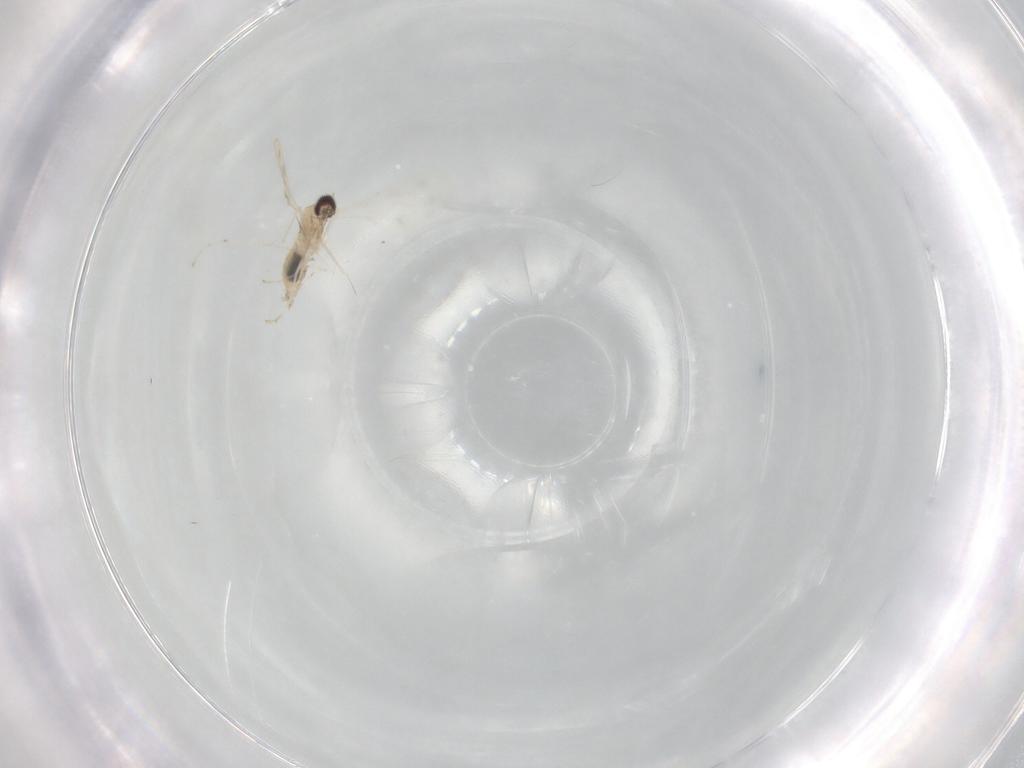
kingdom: Animalia
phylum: Arthropoda
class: Insecta
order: Diptera
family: Cecidomyiidae
